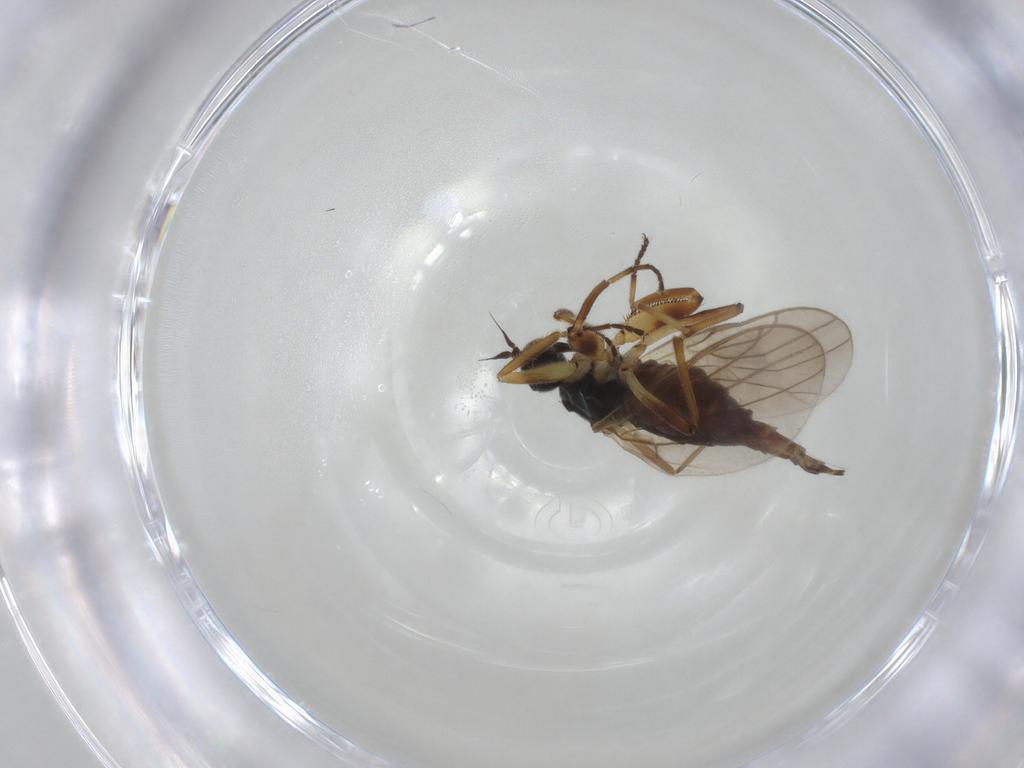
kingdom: Animalia
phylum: Arthropoda
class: Insecta
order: Diptera
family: Hybotidae
